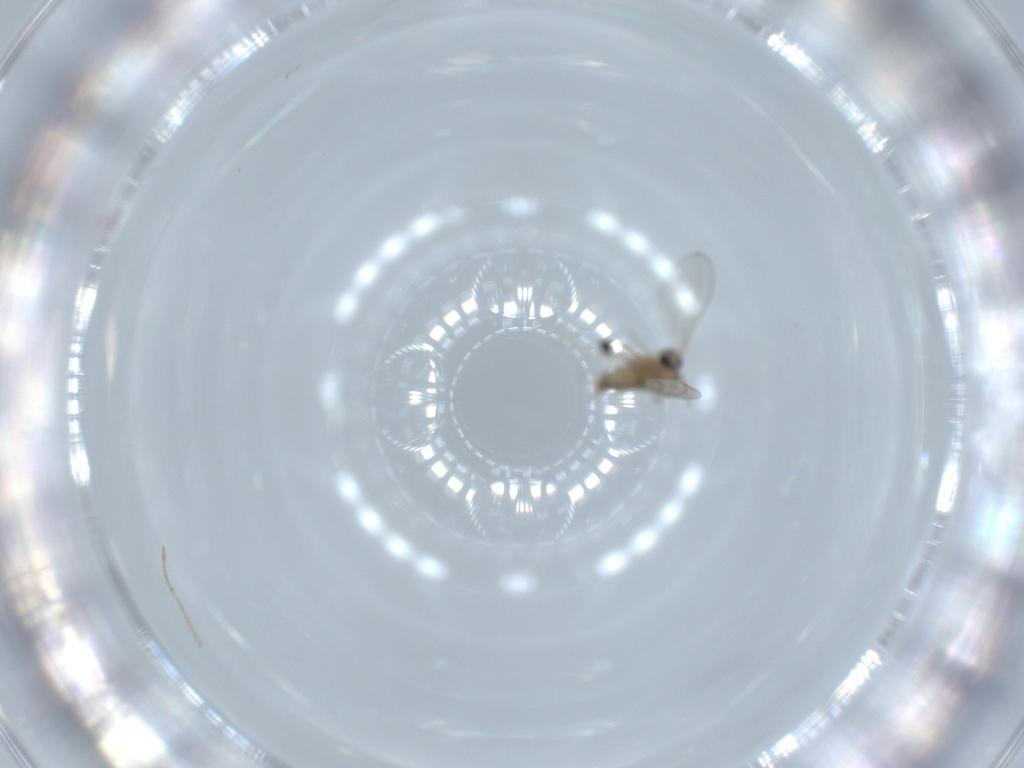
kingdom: Animalia
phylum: Arthropoda
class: Insecta
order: Diptera
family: Cecidomyiidae
